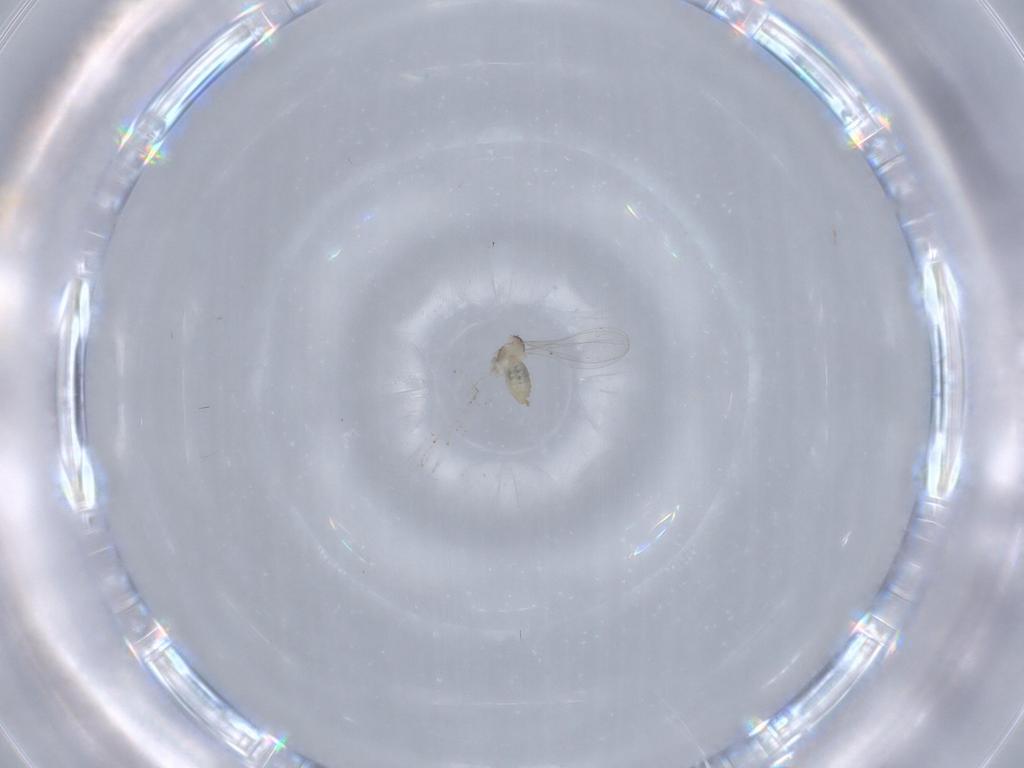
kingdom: Animalia
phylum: Arthropoda
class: Insecta
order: Diptera
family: Cecidomyiidae
